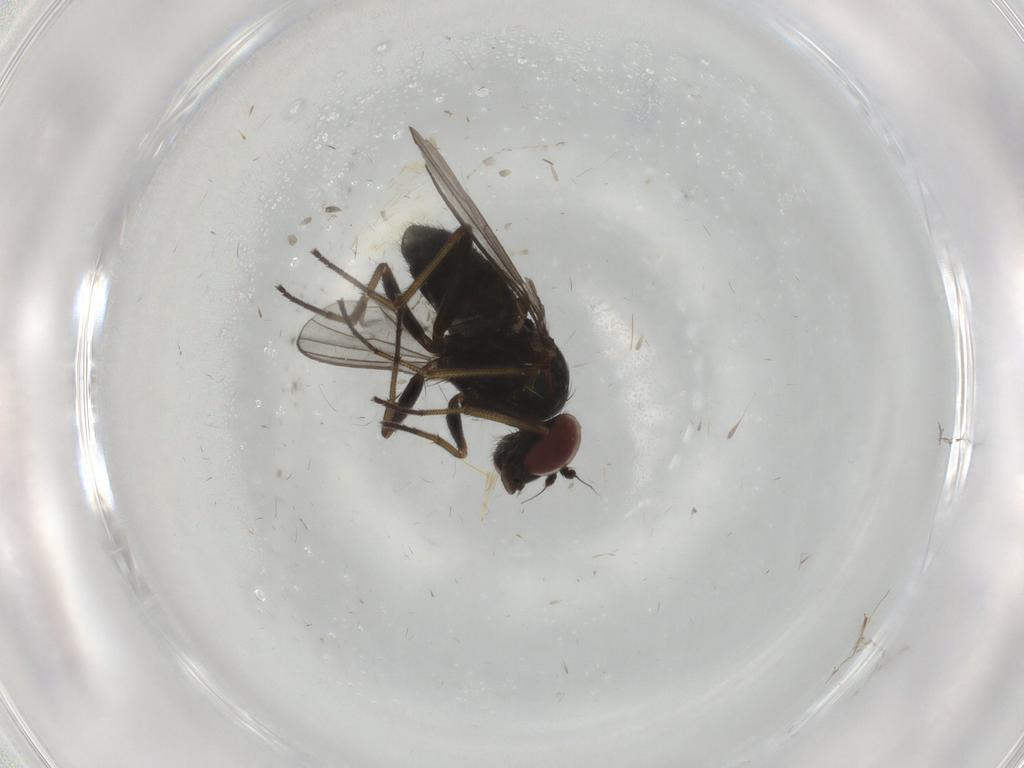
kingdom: Animalia
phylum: Arthropoda
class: Insecta
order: Diptera
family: Dolichopodidae
